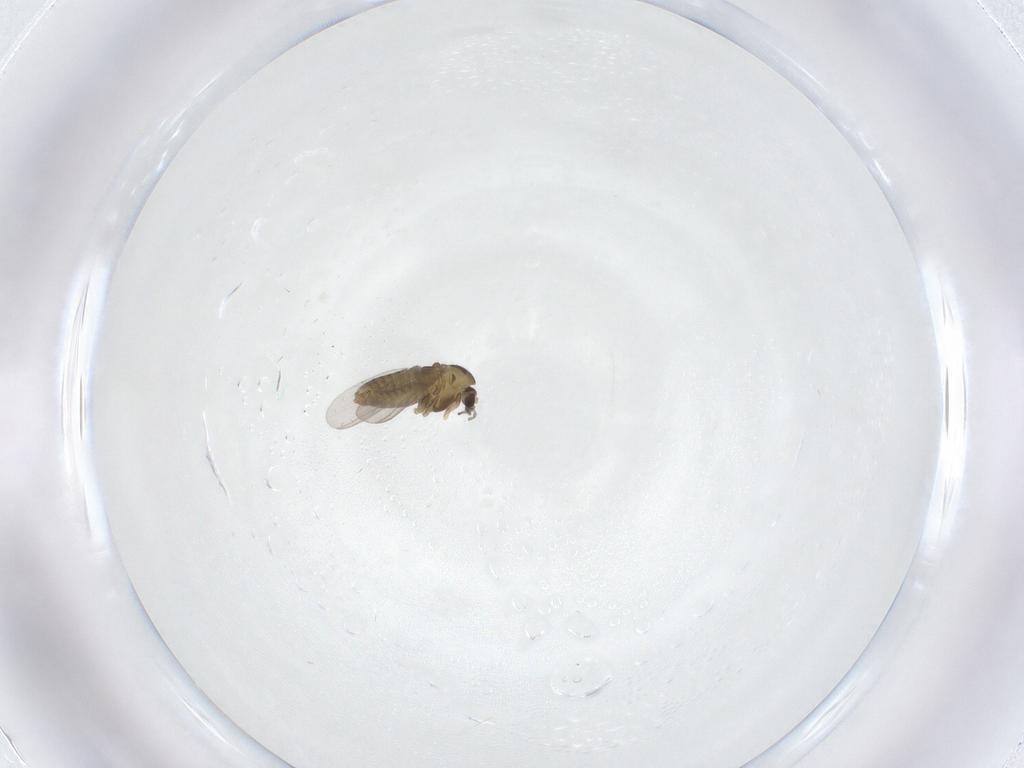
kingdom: Animalia
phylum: Arthropoda
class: Insecta
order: Diptera
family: Chironomidae
